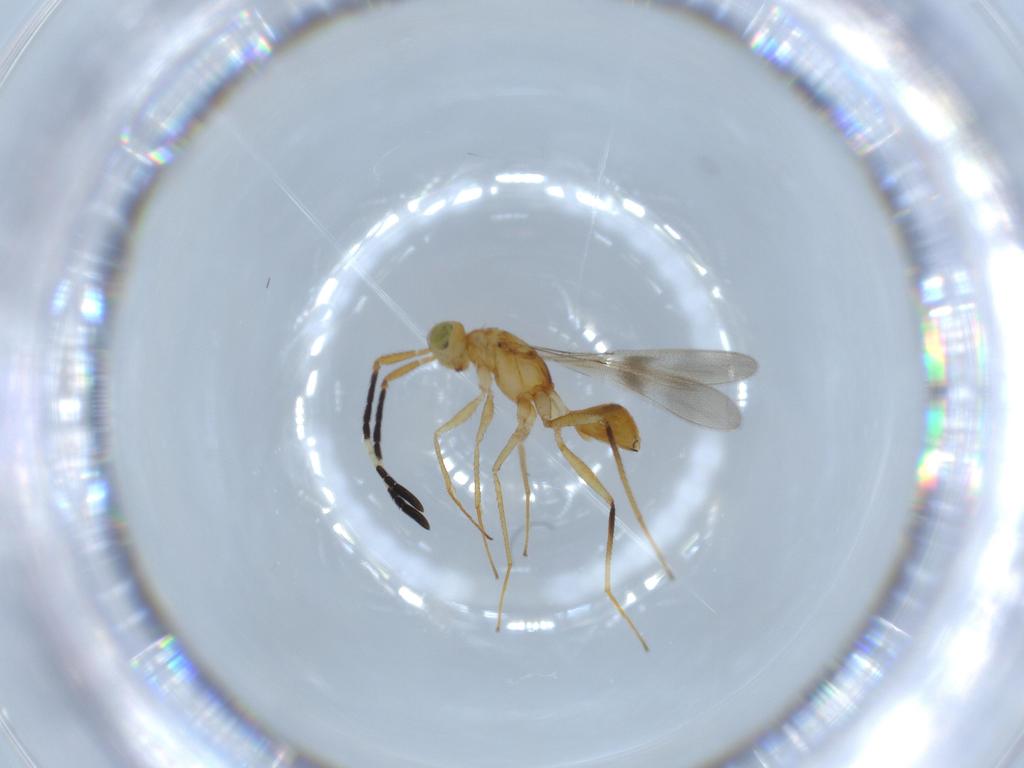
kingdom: Animalia
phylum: Arthropoda
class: Insecta
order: Hymenoptera
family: Mymaridae
